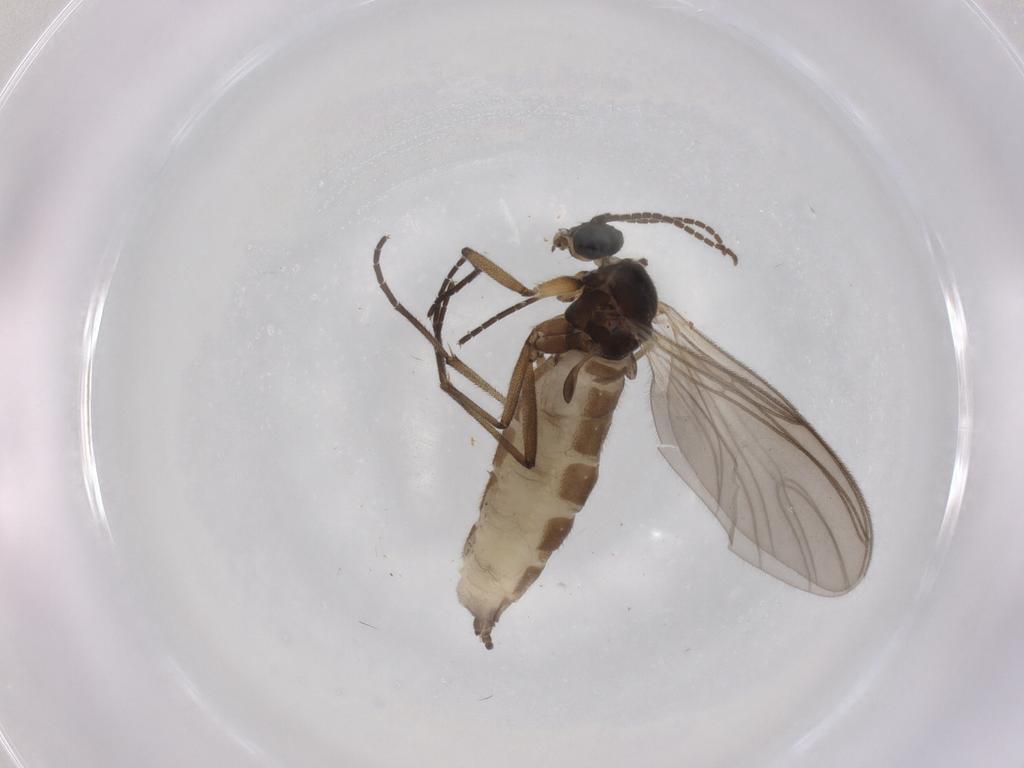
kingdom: Animalia
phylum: Arthropoda
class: Insecta
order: Diptera
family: Sciaridae
